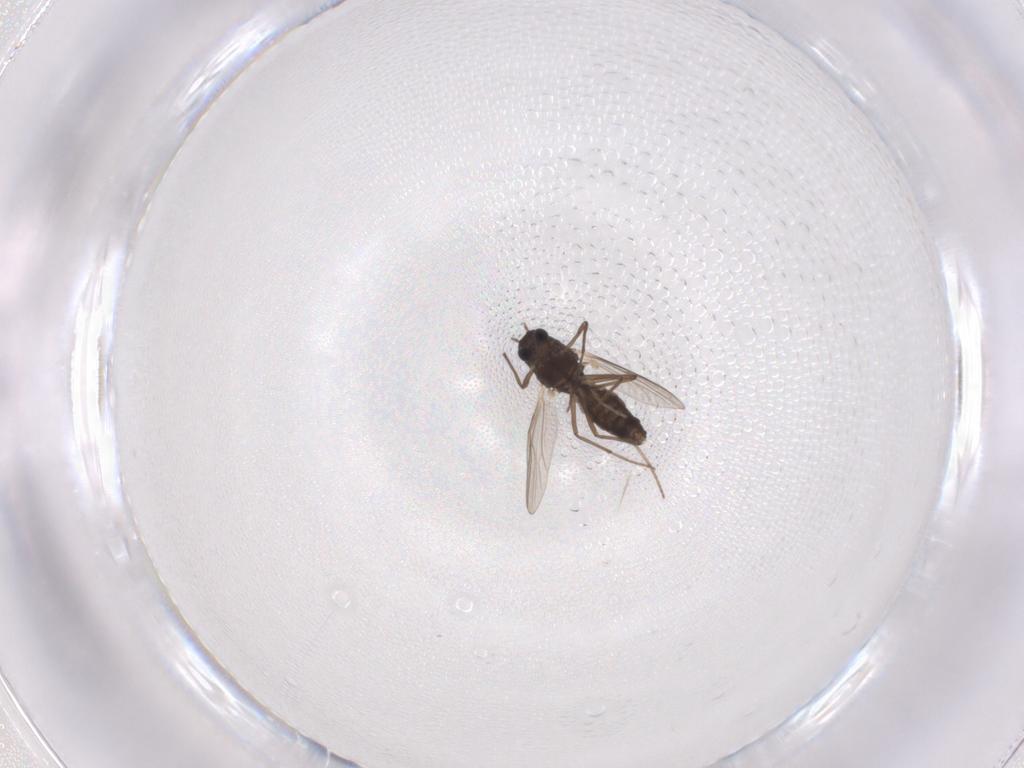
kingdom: Animalia
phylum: Arthropoda
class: Insecta
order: Diptera
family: Chironomidae
